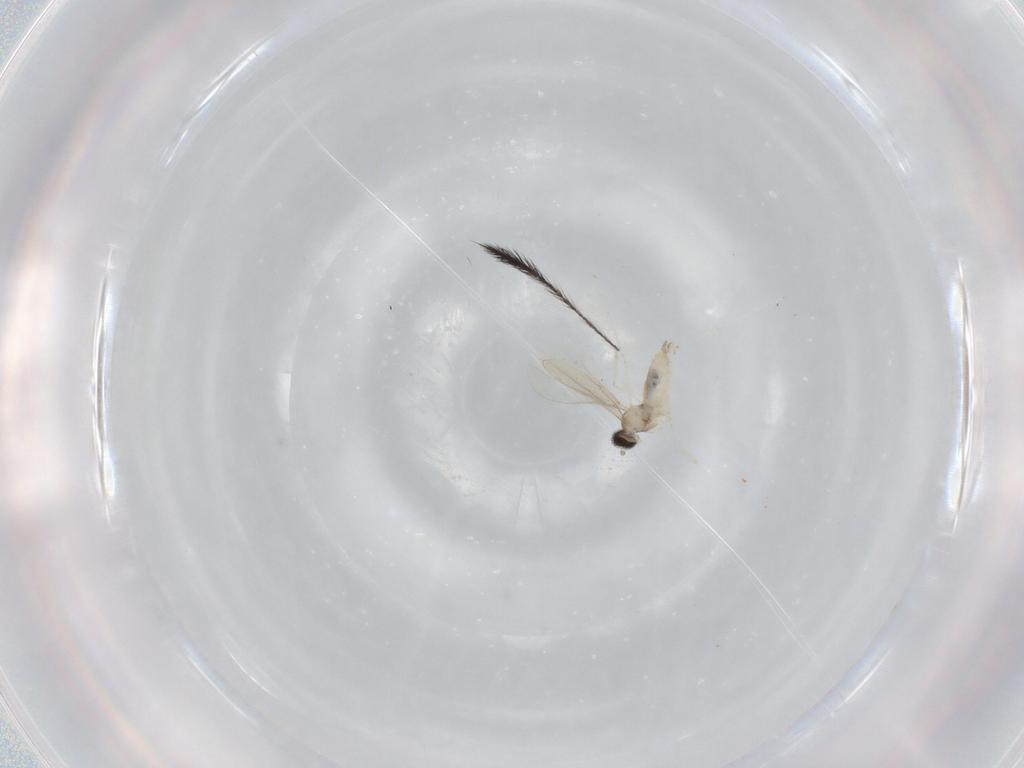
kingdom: Animalia
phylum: Arthropoda
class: Insecta
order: Diptera
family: Cecidomyiidae
